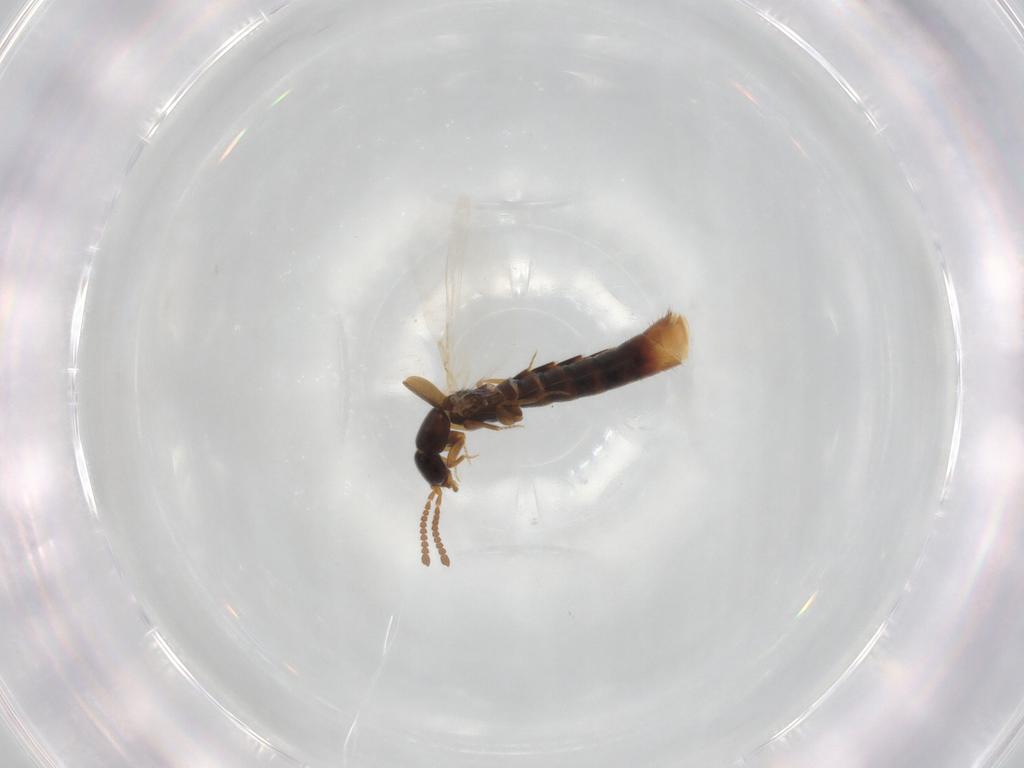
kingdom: Animalia
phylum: Arthropoda
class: Insecta
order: Coleoptera
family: Staphylinidae
